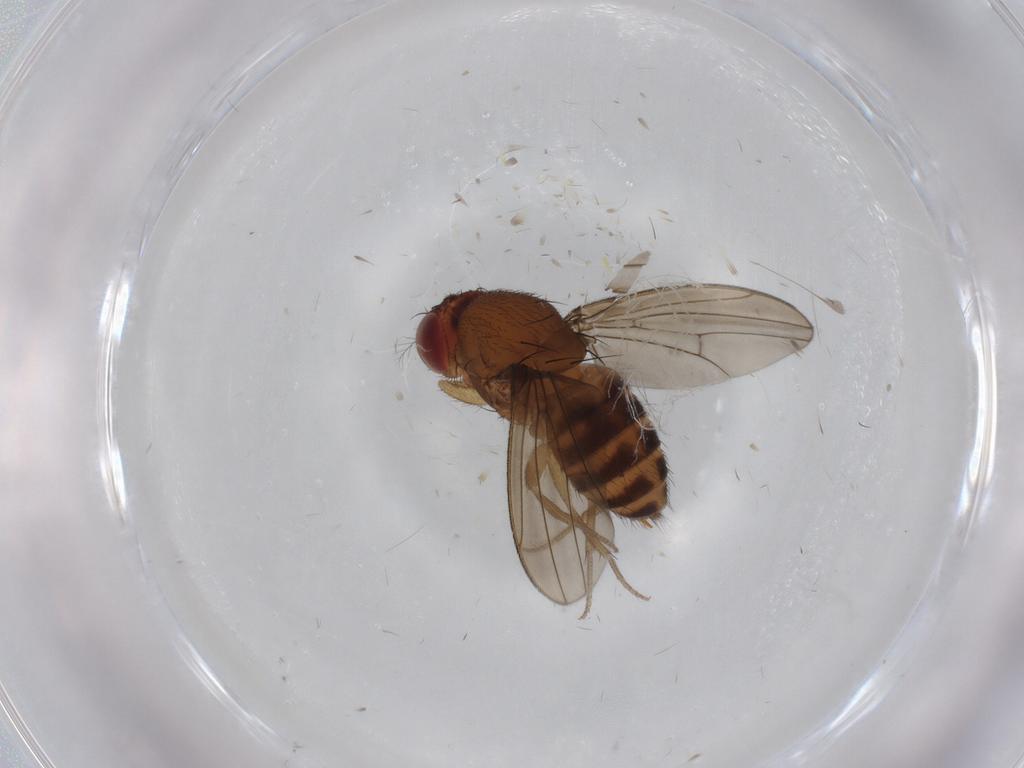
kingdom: Animalia
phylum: Arthropoda
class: Insecta
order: Diptera
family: Drosophilidae
